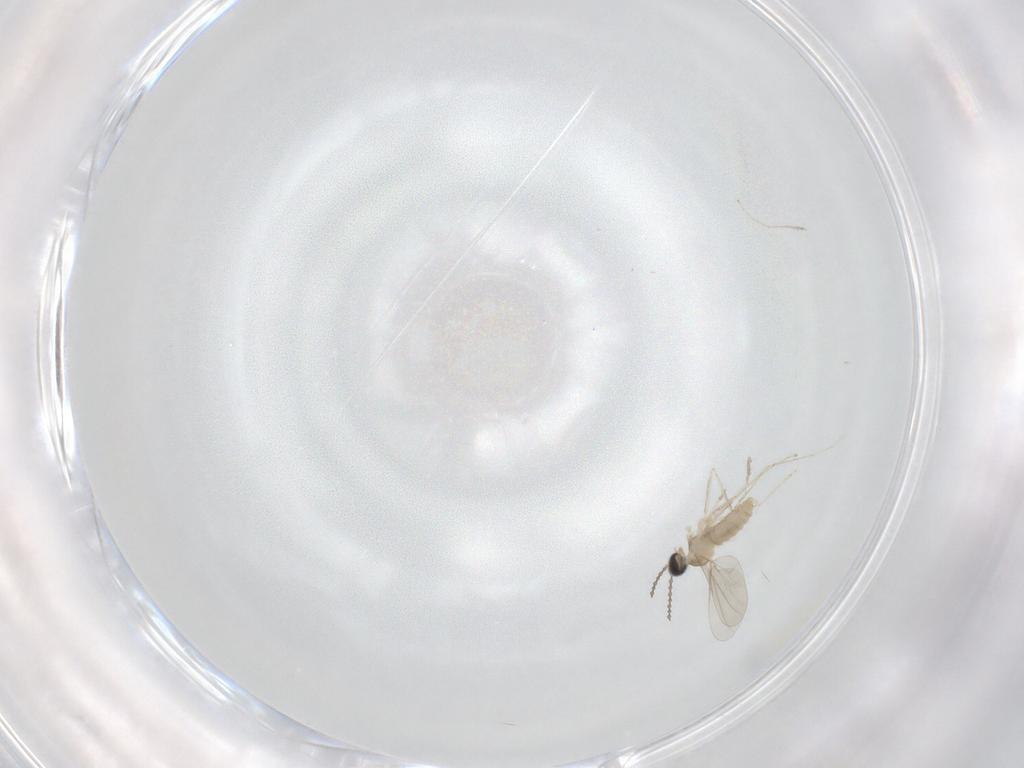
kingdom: Animalia
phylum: Arthropoda
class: Insecta
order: Diptera
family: Cecidomyiidae
